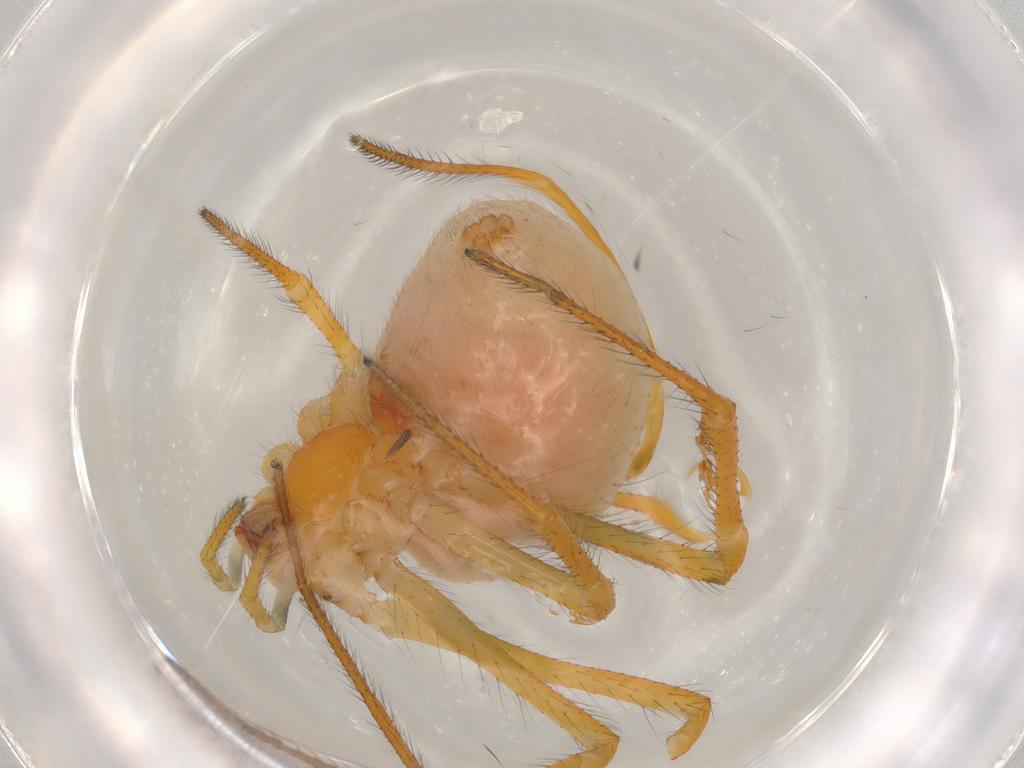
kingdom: Animalia
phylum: Arthropoda
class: Arachnida
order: Araneae
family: Theridiidae
